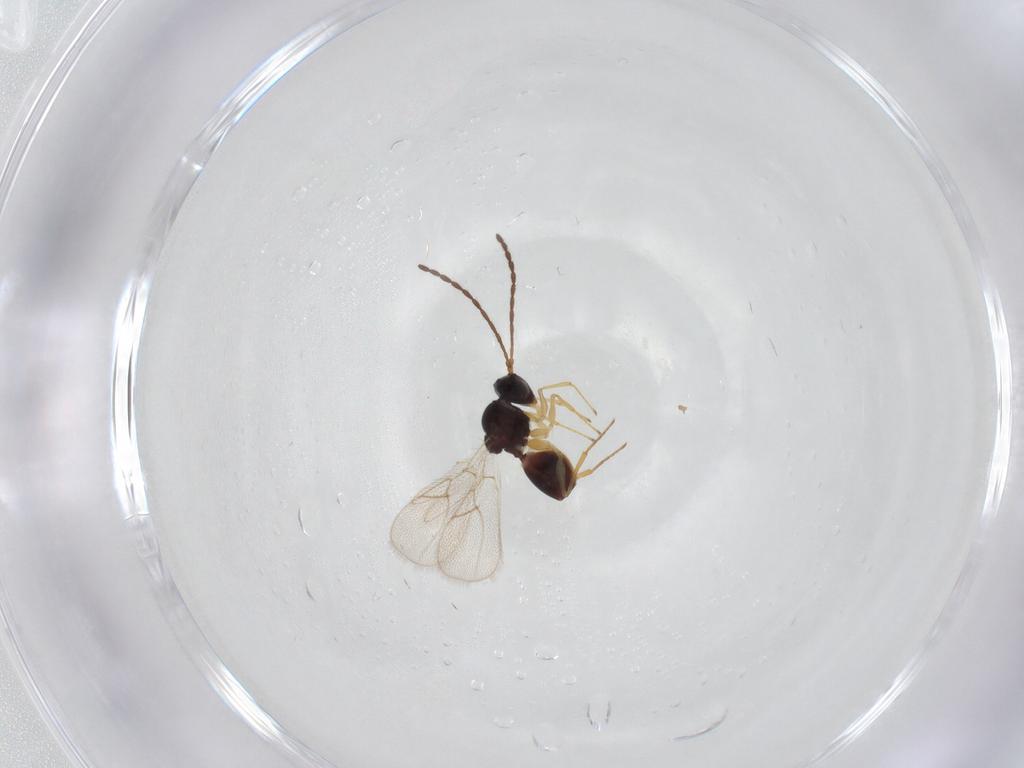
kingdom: Animalia
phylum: Arthropoda
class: Insecta
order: Hymenoptera
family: Figitidae
